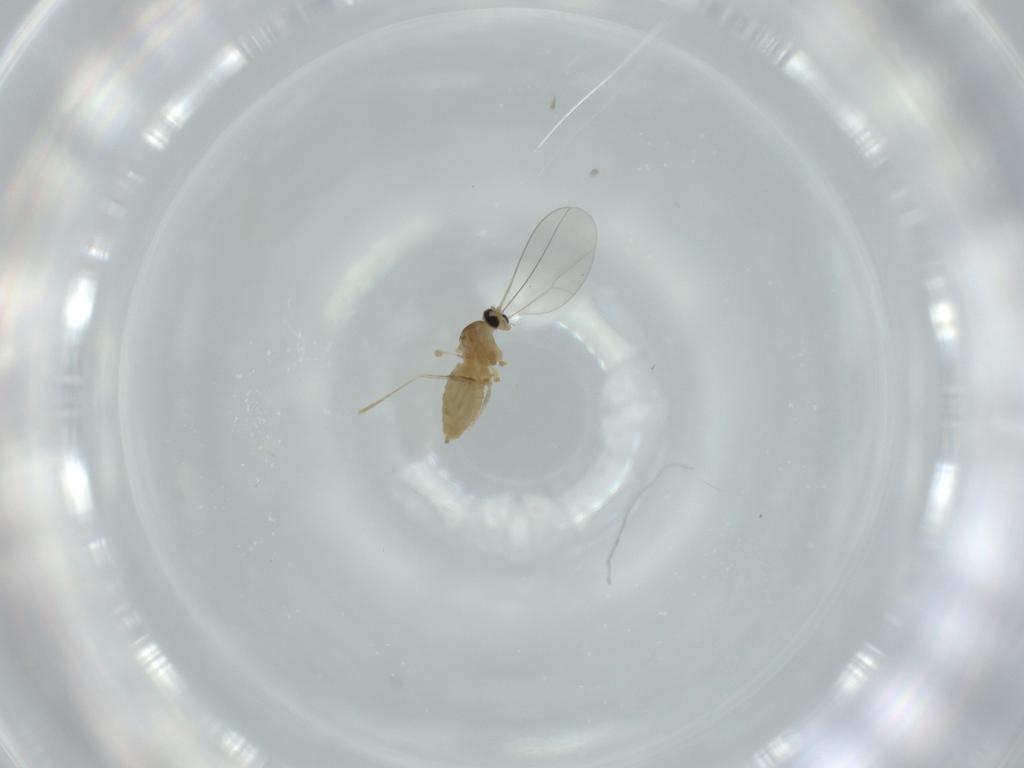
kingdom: Animalia
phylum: Arthropoda
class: Insecta
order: Diptera
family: Cecidomyiidae
